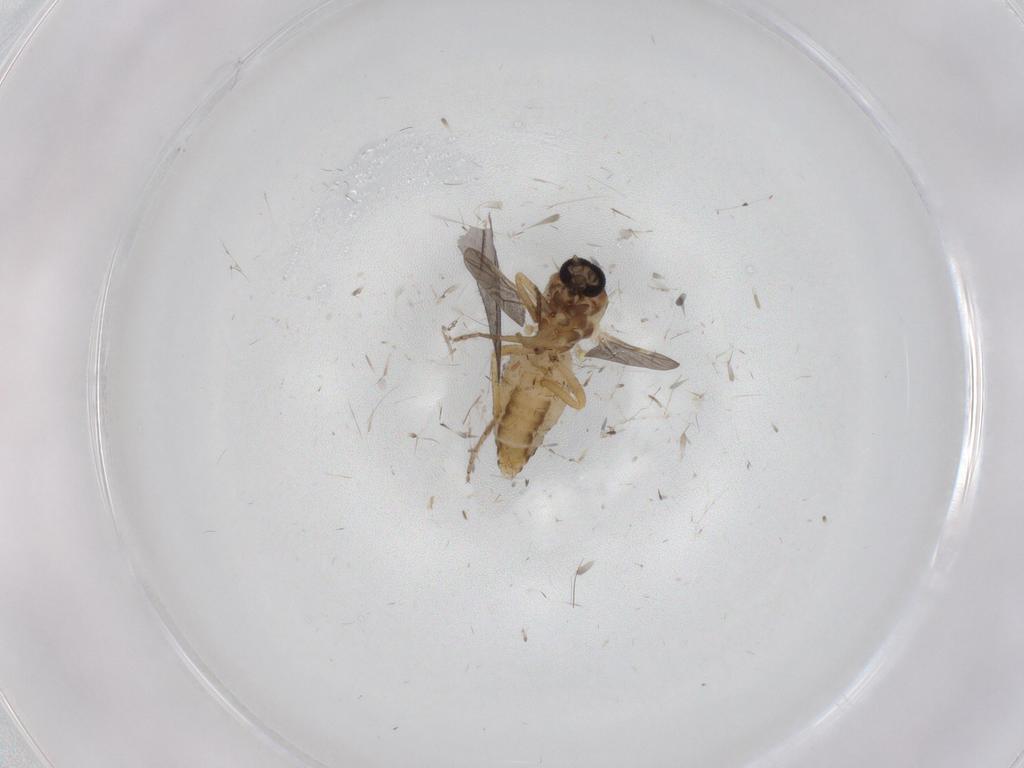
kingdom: Animalia
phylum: Arthropoda
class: Insecta
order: Diptera
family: Ceratopogonidae
